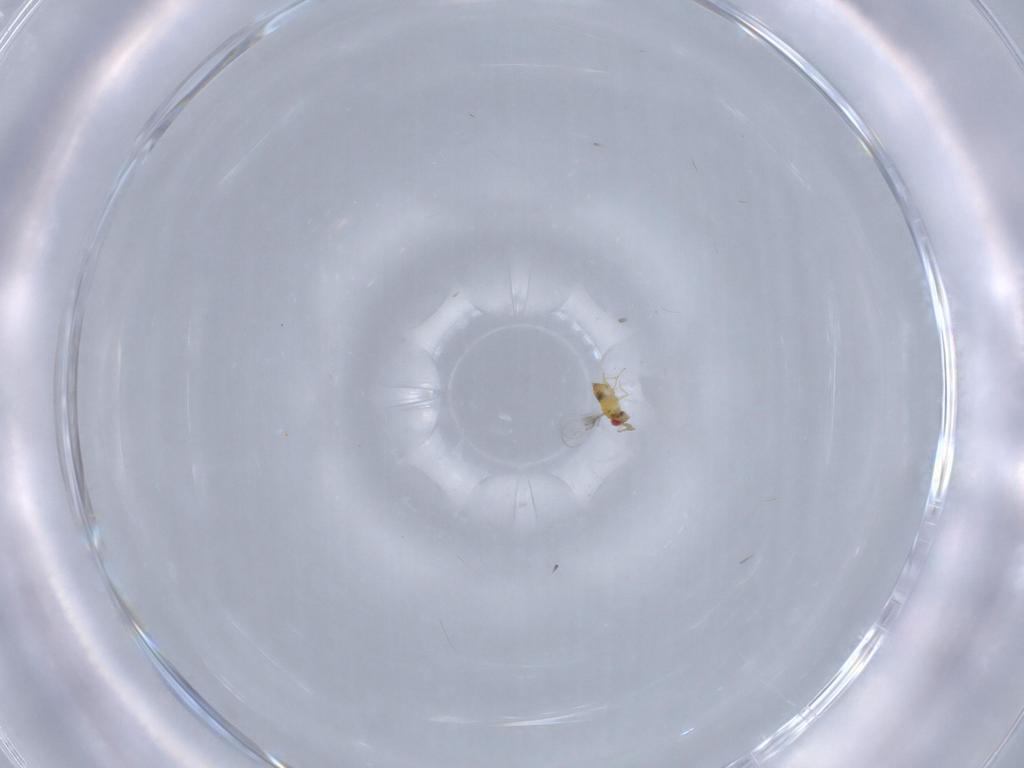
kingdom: Animalia
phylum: Arthropoda
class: Insecta
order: Hymenoptera
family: Trichogrammatidae
